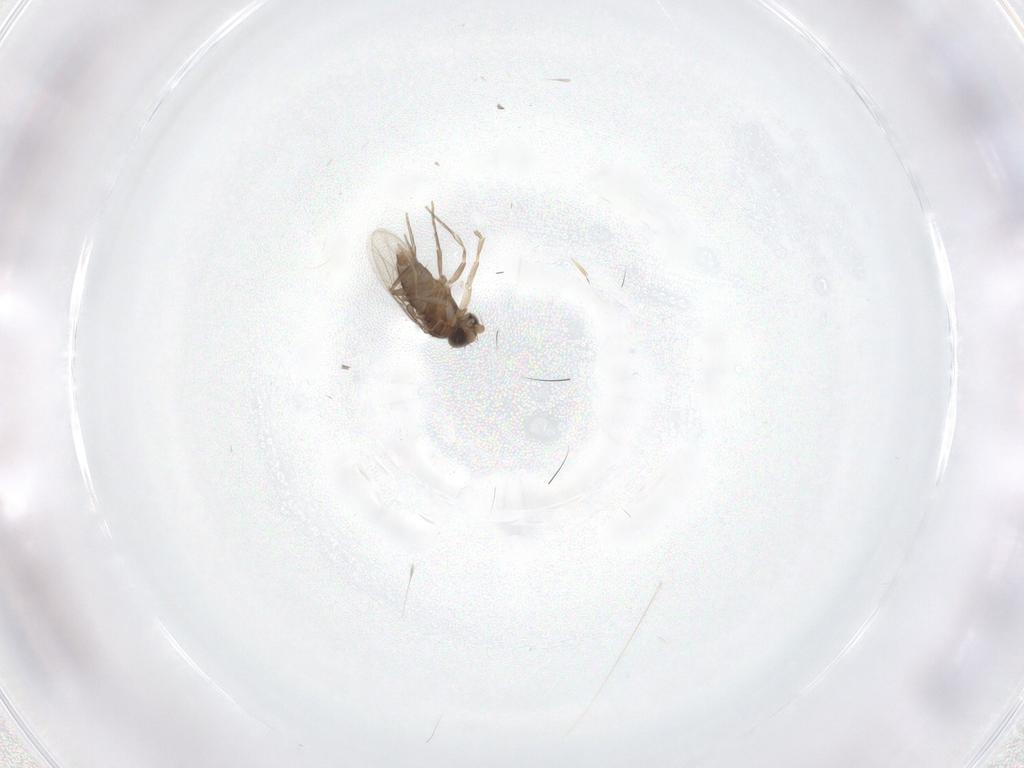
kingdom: Animalia
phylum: Arthropoda
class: Insecta
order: Diptera
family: Phoridae
